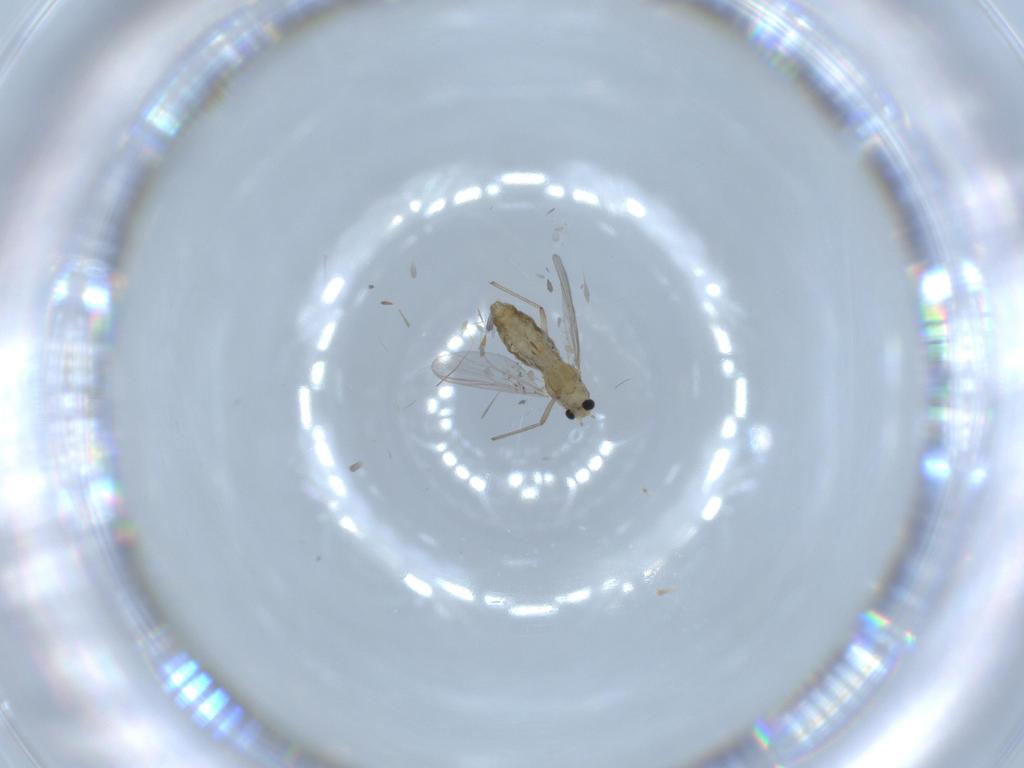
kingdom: Animalia
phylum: Arthropoda
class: Insecta
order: Diptera
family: Chironomidae
